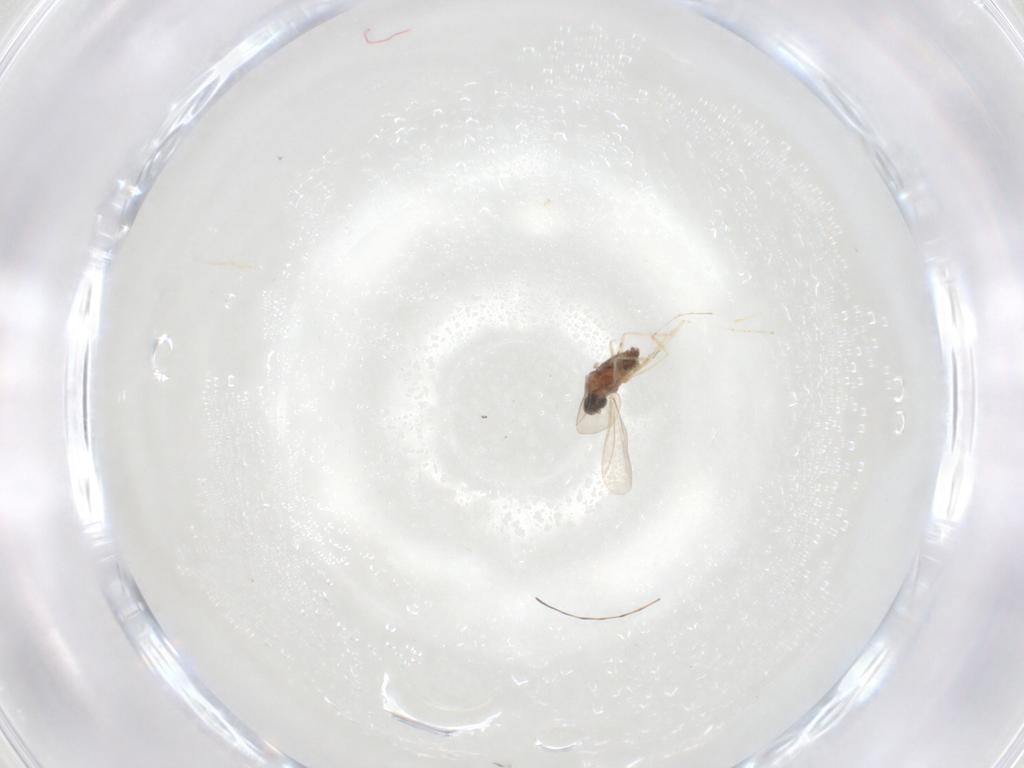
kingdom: Animalia
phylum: Arthropoda
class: Insecta
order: Diptera
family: Cecidomyiidae
